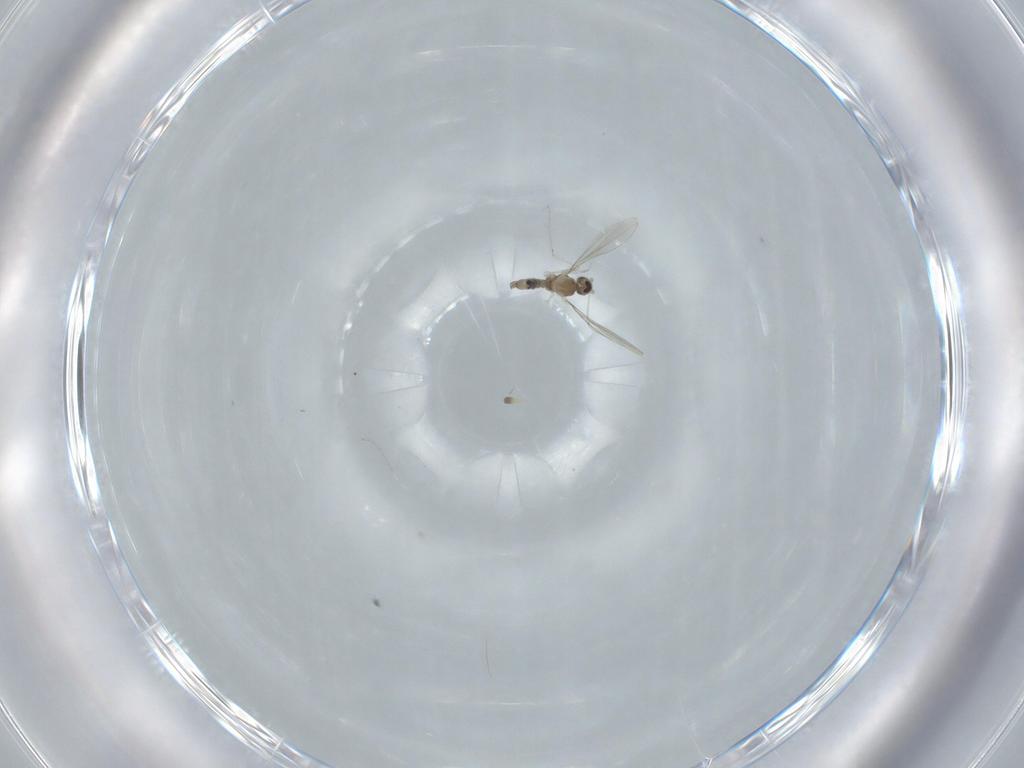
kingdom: Animalia
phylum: Arthropoda
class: Insecta
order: Diptera
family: Cecidomyiidae
